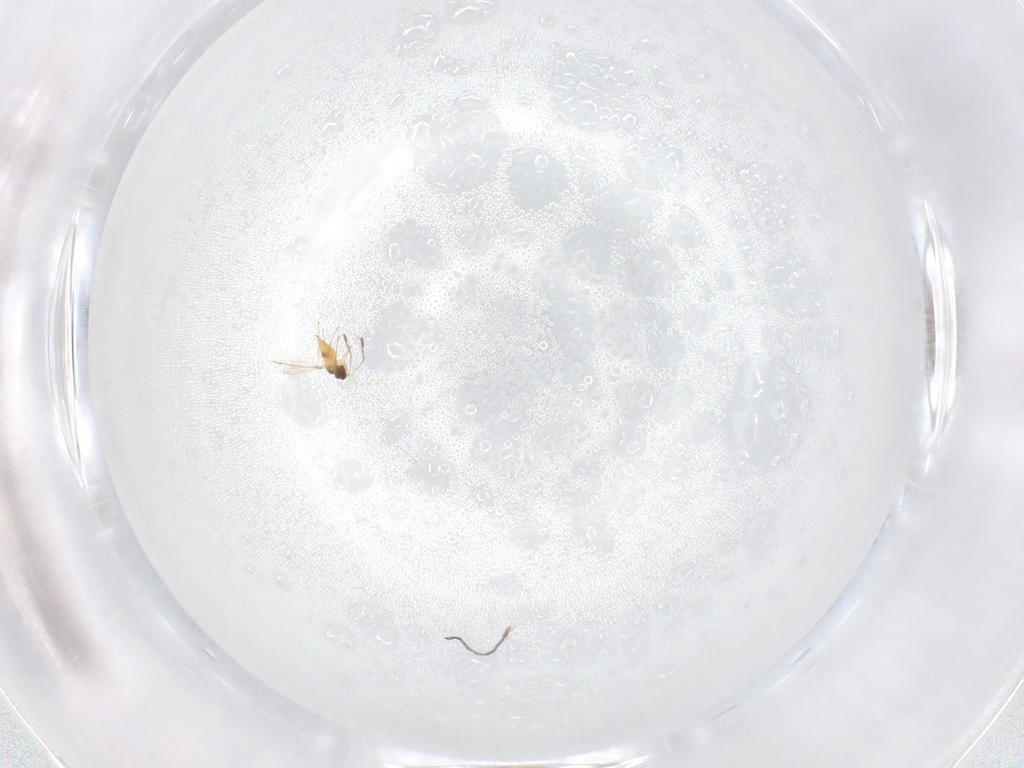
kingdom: Animalia
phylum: Arthropoda
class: Insecta
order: Hymenoptera
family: Mymaridae
